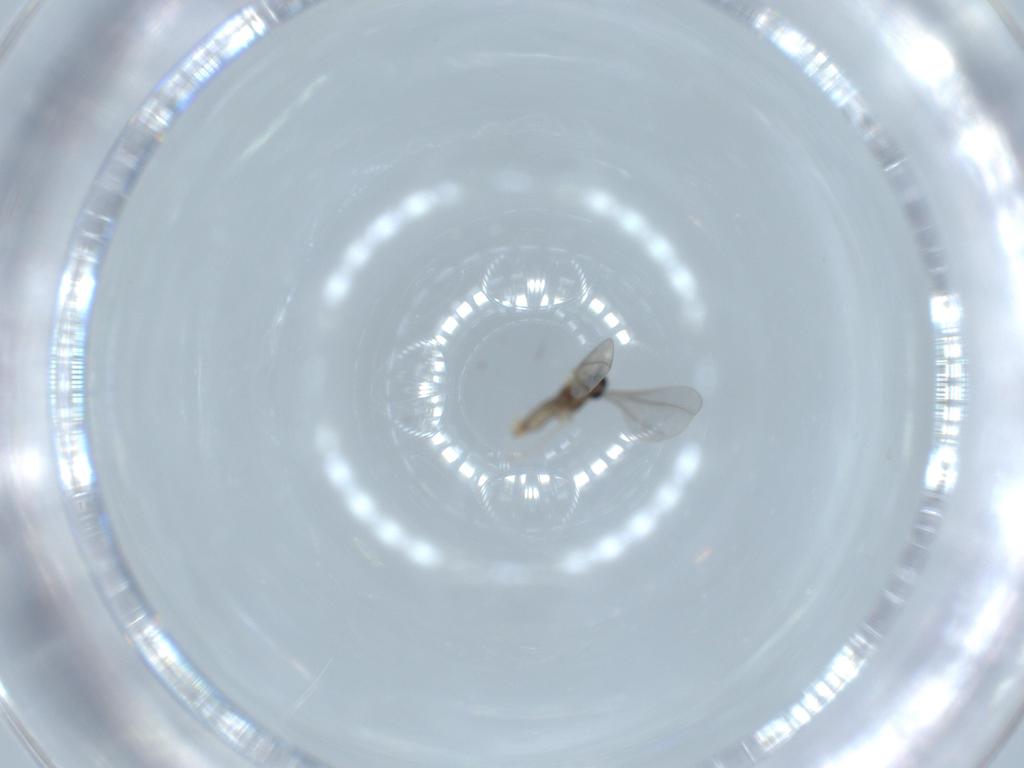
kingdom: Animalia
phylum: Arthropoda
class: Insecta
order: Diptera
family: Cecidomyiidae
